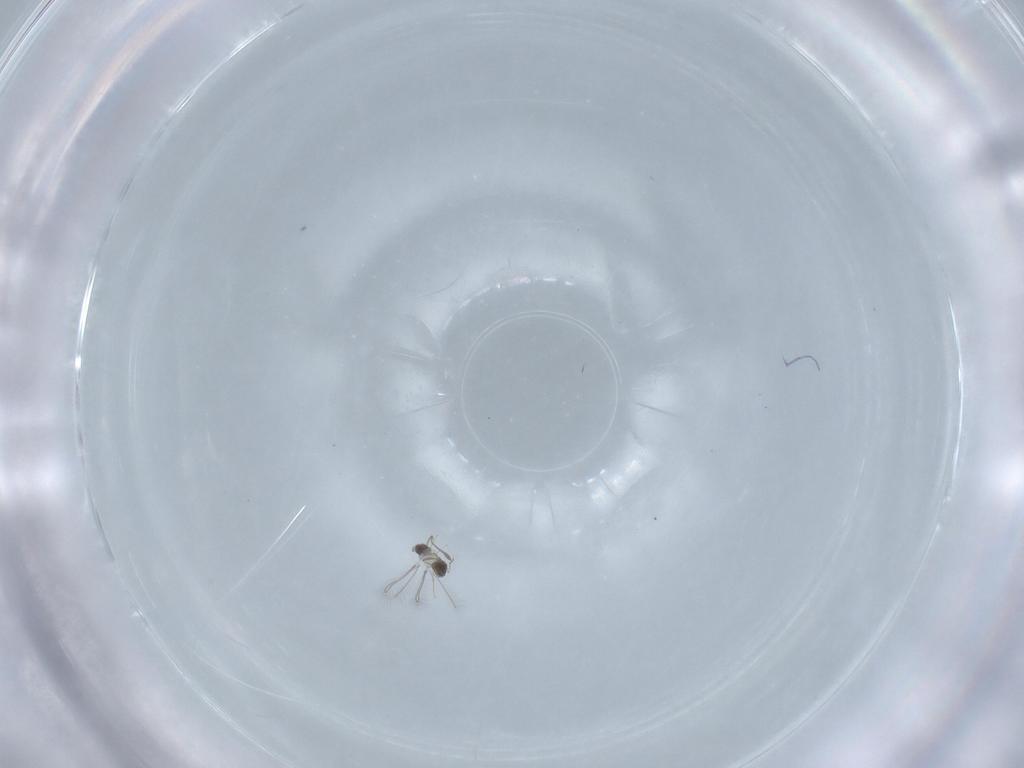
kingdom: Animalia
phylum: Arthropoda
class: Insecta
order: Hymenoptera
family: Mymaridae
